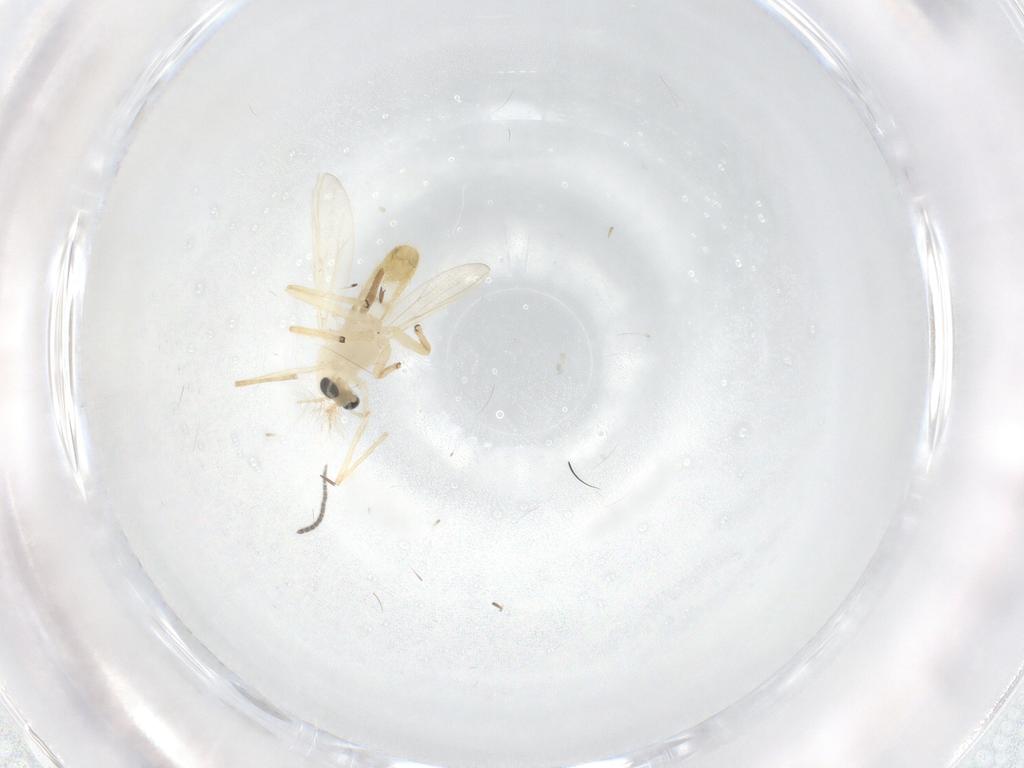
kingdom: Animalia
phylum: Arthropoda
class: Insecta
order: Diptera
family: Chironomidae
